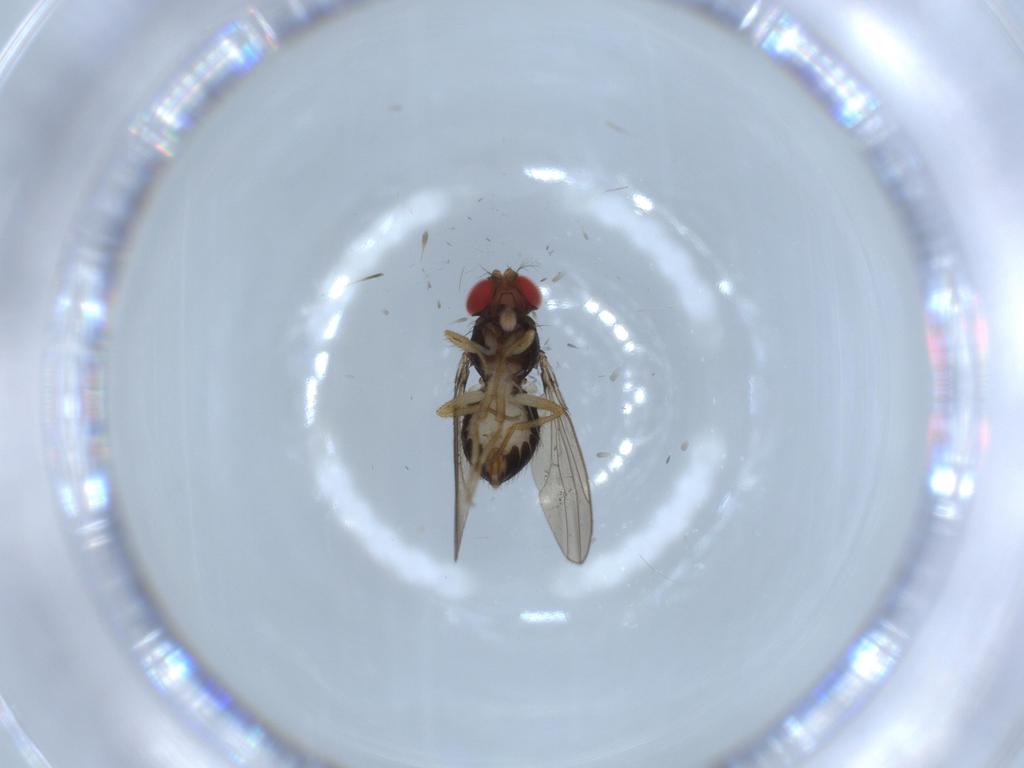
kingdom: Animalia
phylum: Arthropoda
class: Insecta
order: Diptera
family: Drosophilidae
